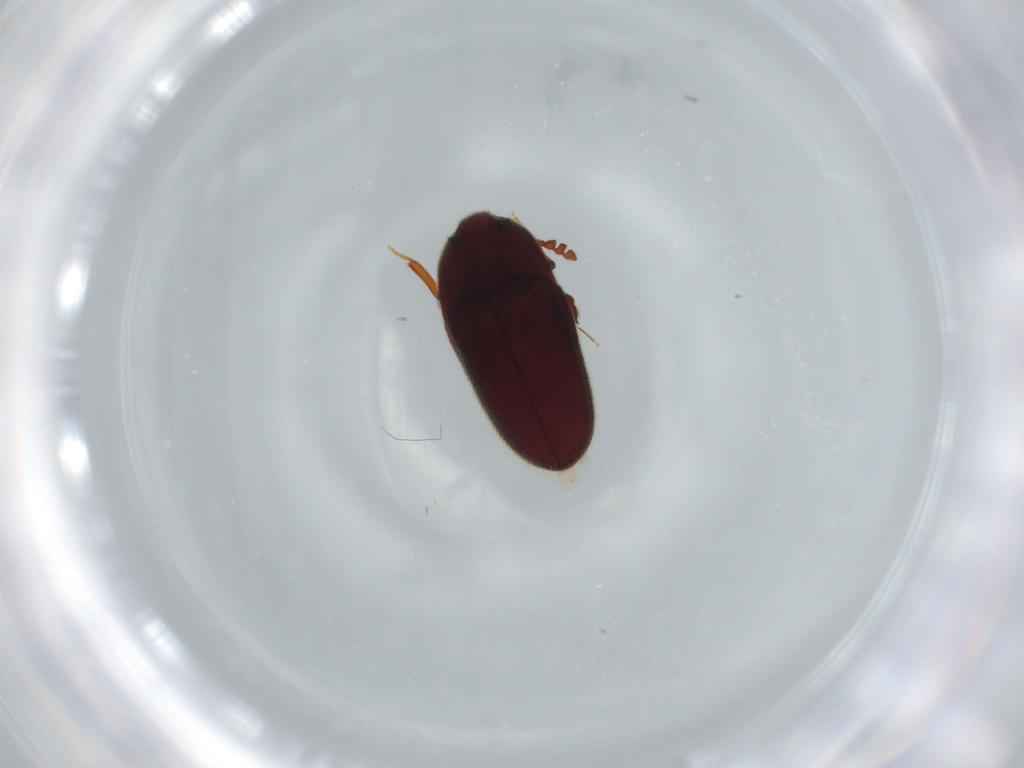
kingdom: Animalia
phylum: Arthropoda
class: Insecta
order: Coleoptera
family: Throscidae
